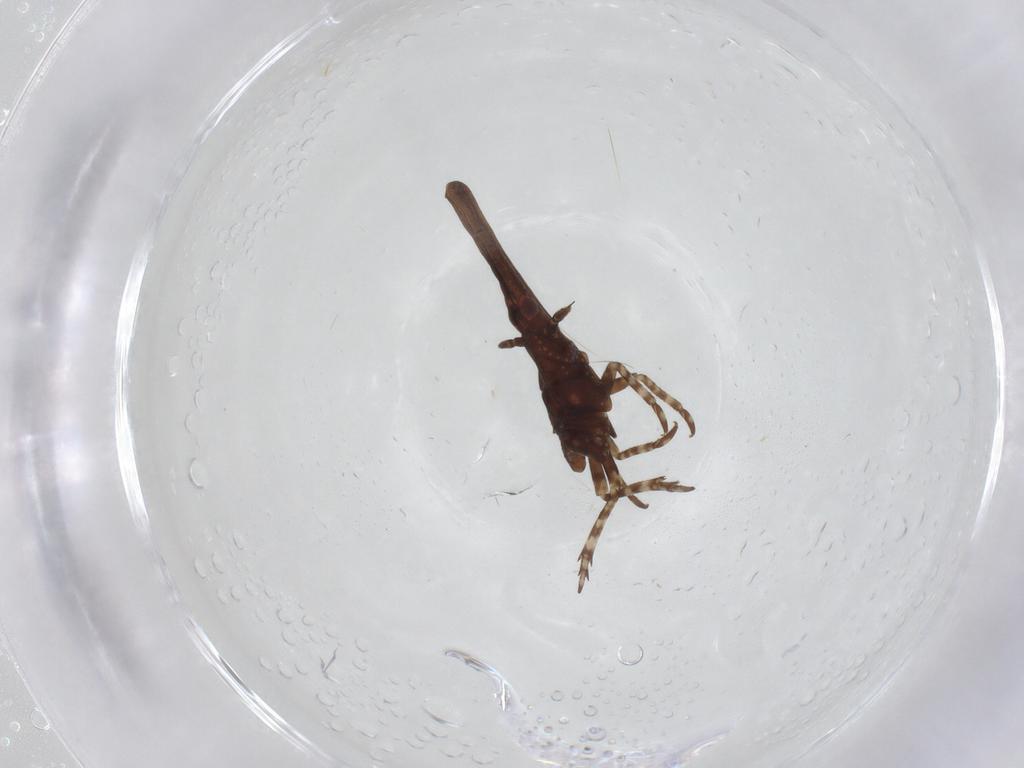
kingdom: Animalia
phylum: Arthropoda
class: Insecta
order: Hemiptera
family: Fulgoridae
